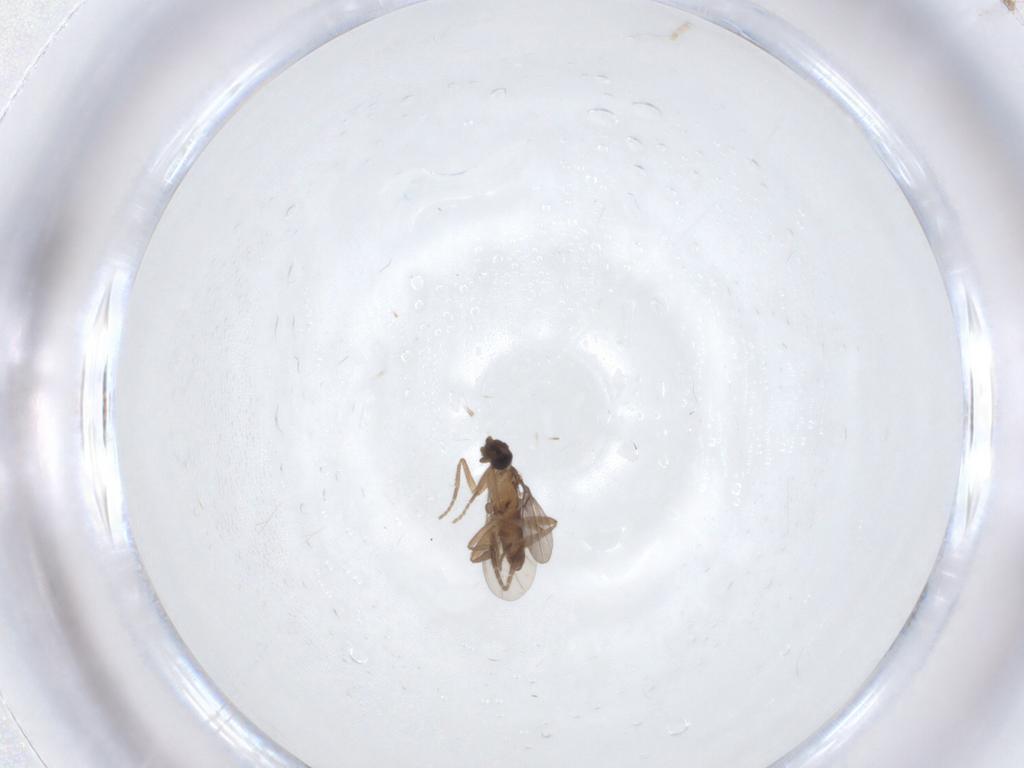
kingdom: Animalia
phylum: Arthropoda
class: Insecta
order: Diptera
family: Phoridae
